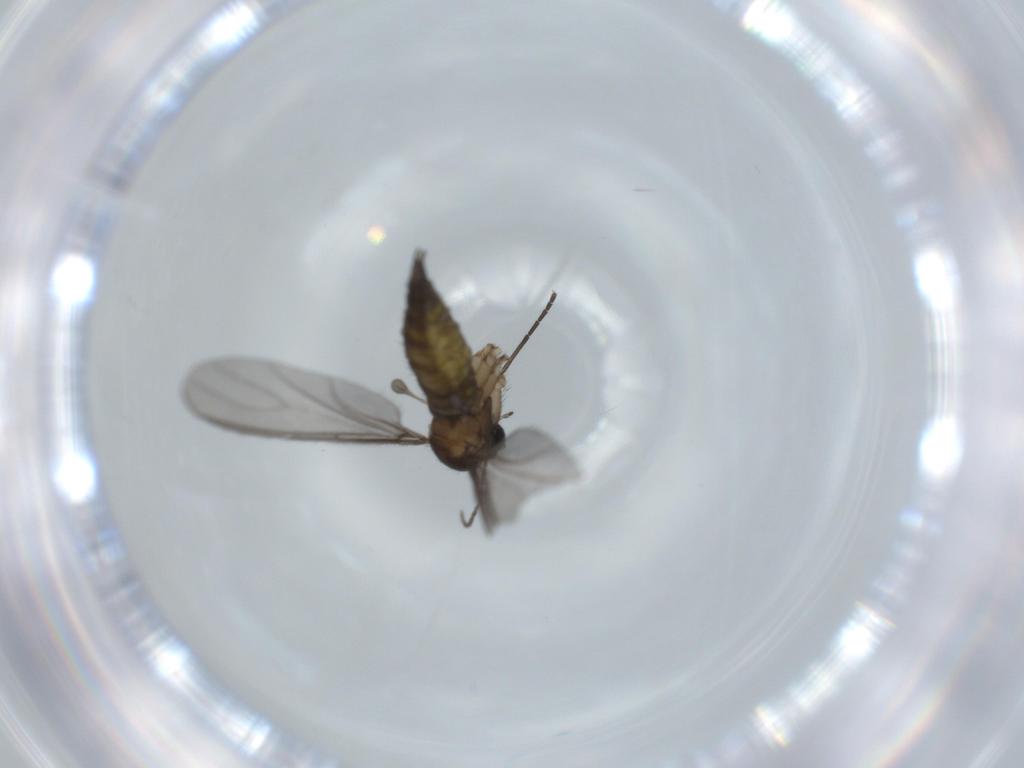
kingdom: Animalia
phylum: Arthropoda
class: Insecta
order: Diptera
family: Sciaridae
